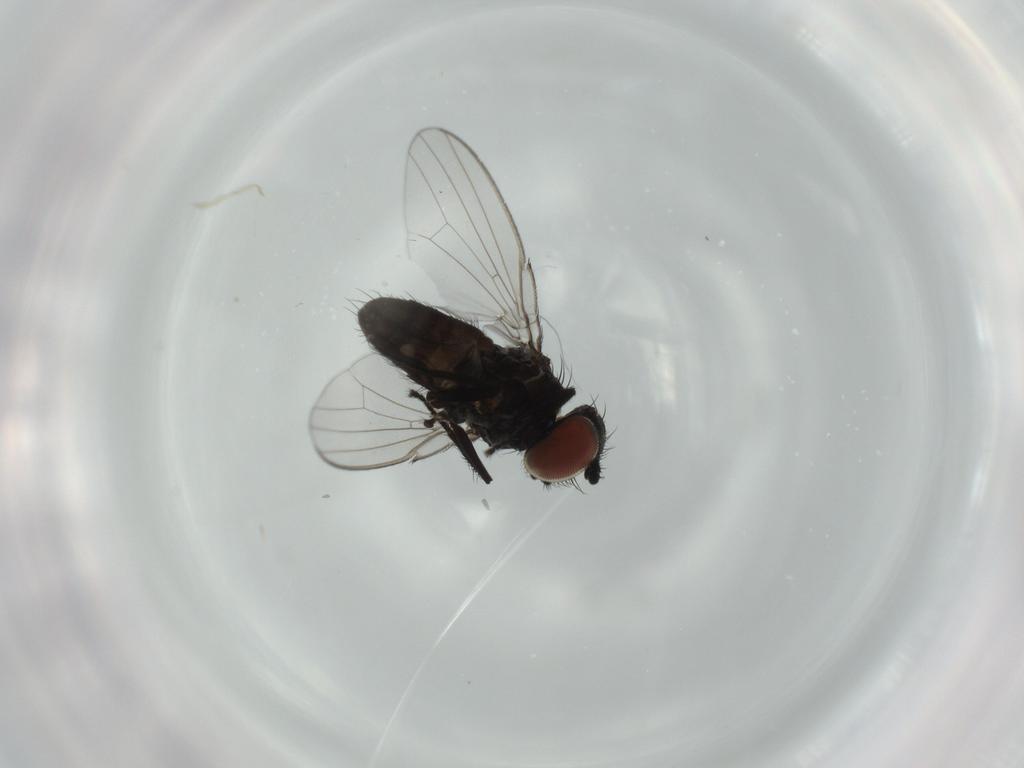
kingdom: Animalia
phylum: Arthropoda
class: Insecta
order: Diptera
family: Milichiidae
